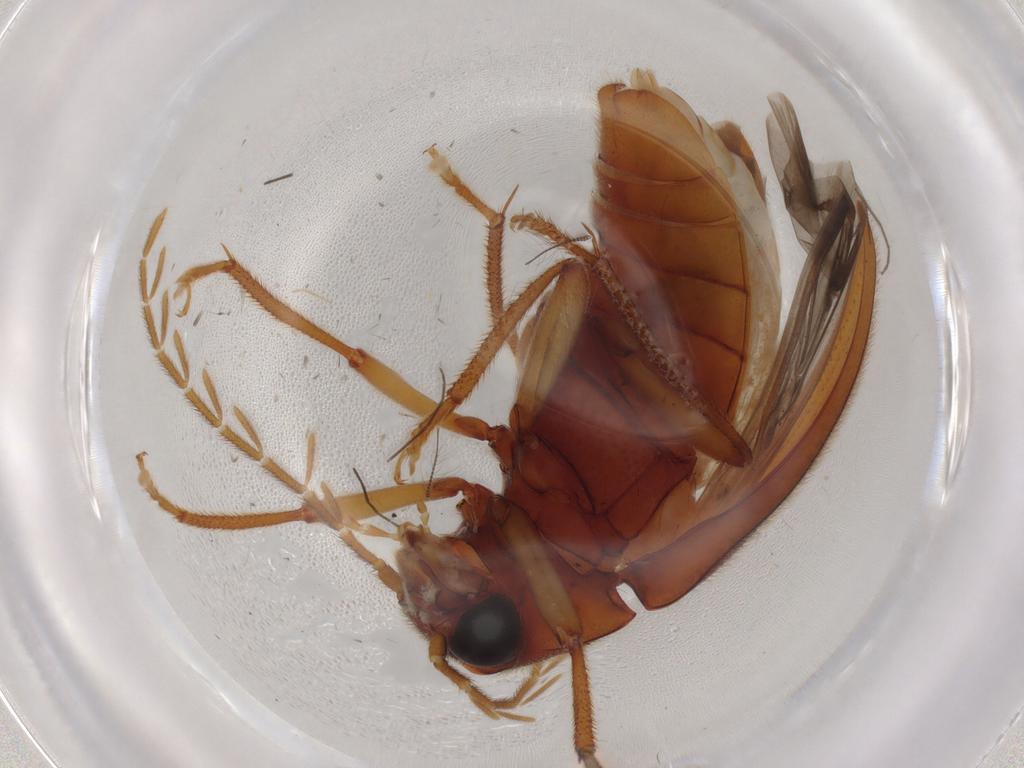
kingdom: Animalia
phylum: Arthropoda
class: Insecta
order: Coleoptera
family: Ptilodactylidae
